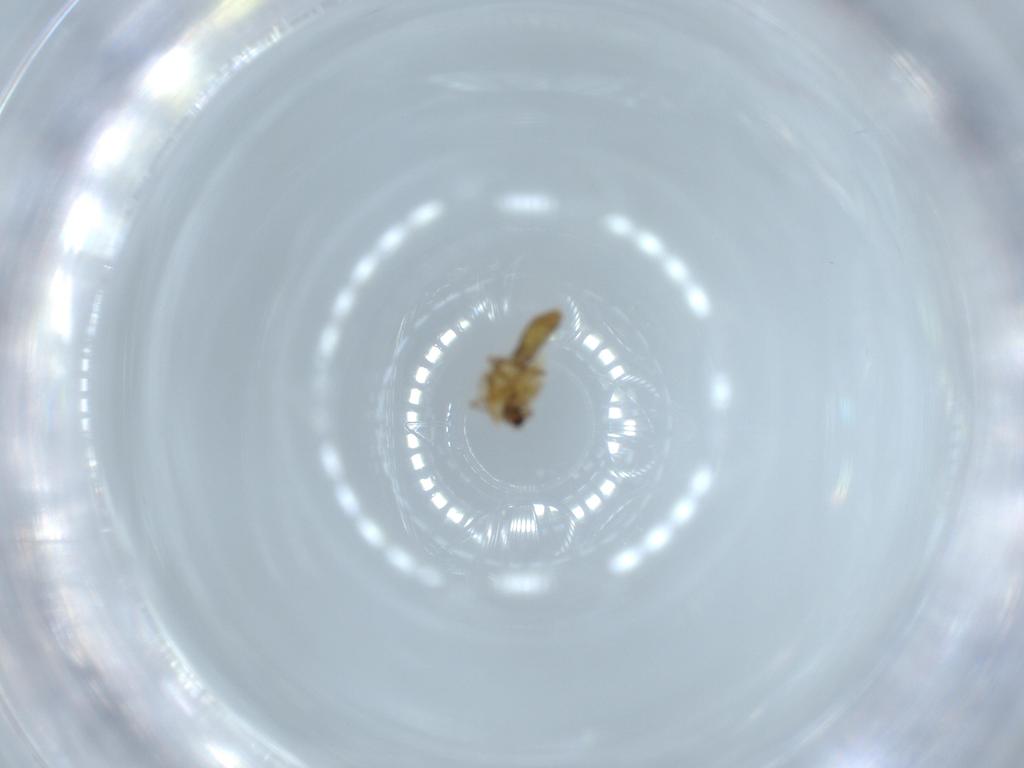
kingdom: Animalia
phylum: Arthropoda
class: Insecta
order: Diptera
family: Chironomidae
